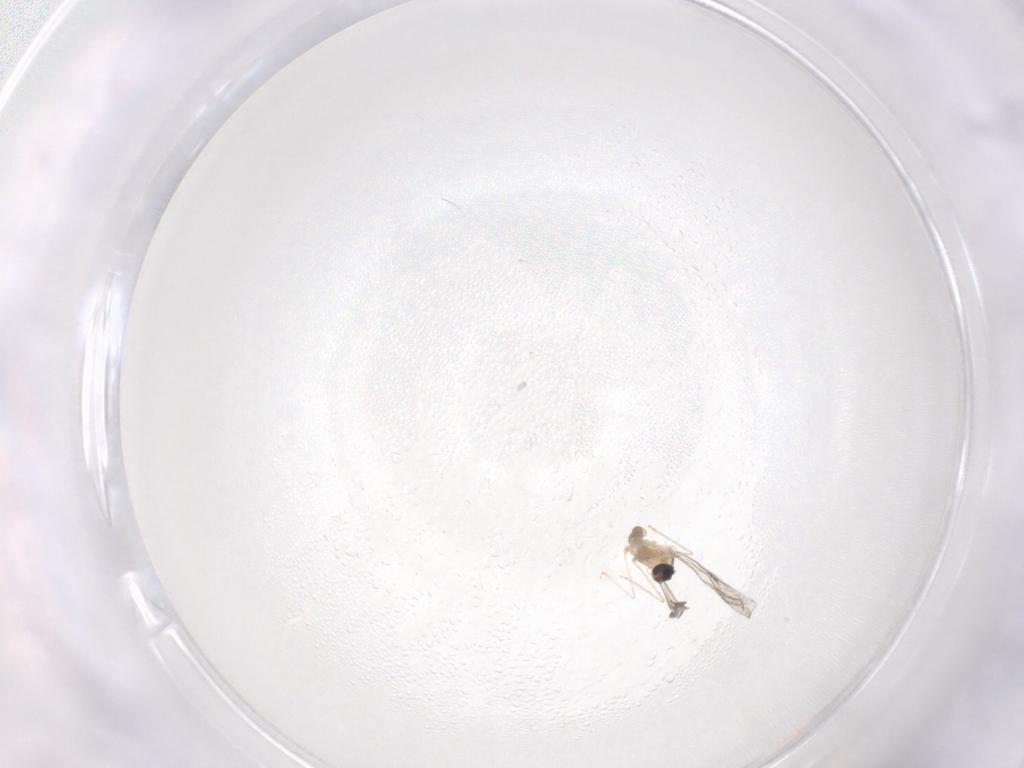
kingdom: Animalia
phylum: Arthropoda
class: Insecta
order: Diptera
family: Cecidomyiidae
